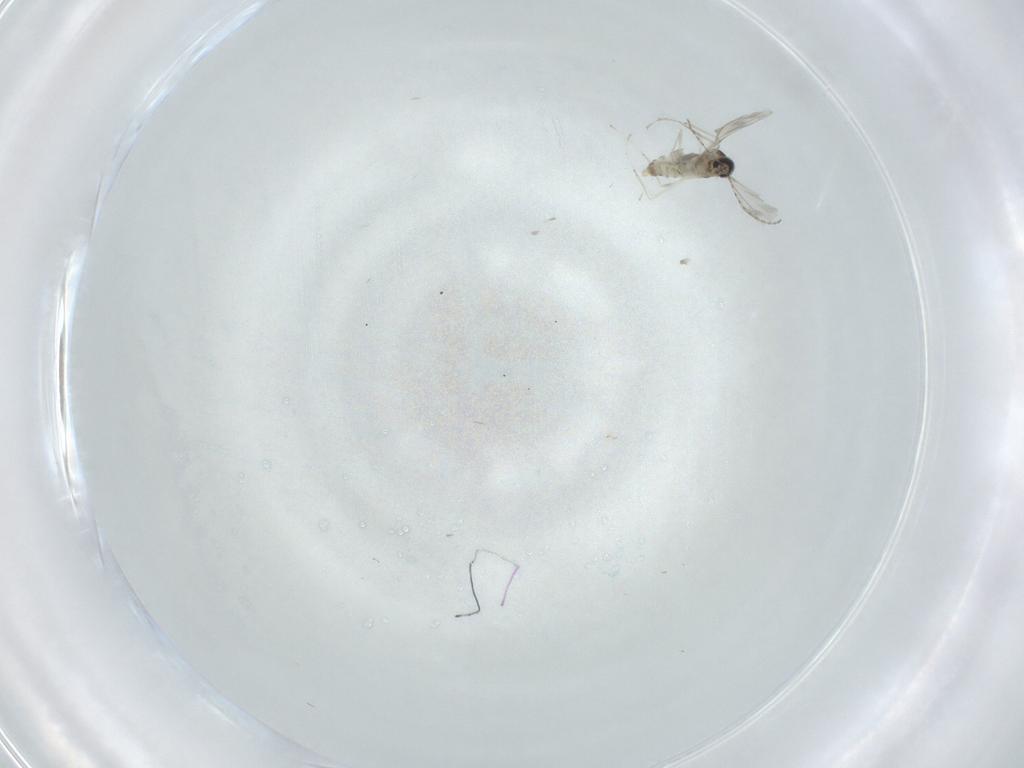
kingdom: Animalia
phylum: Arthropoda
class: Insecta
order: Diptera
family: Cecidomyiidae
